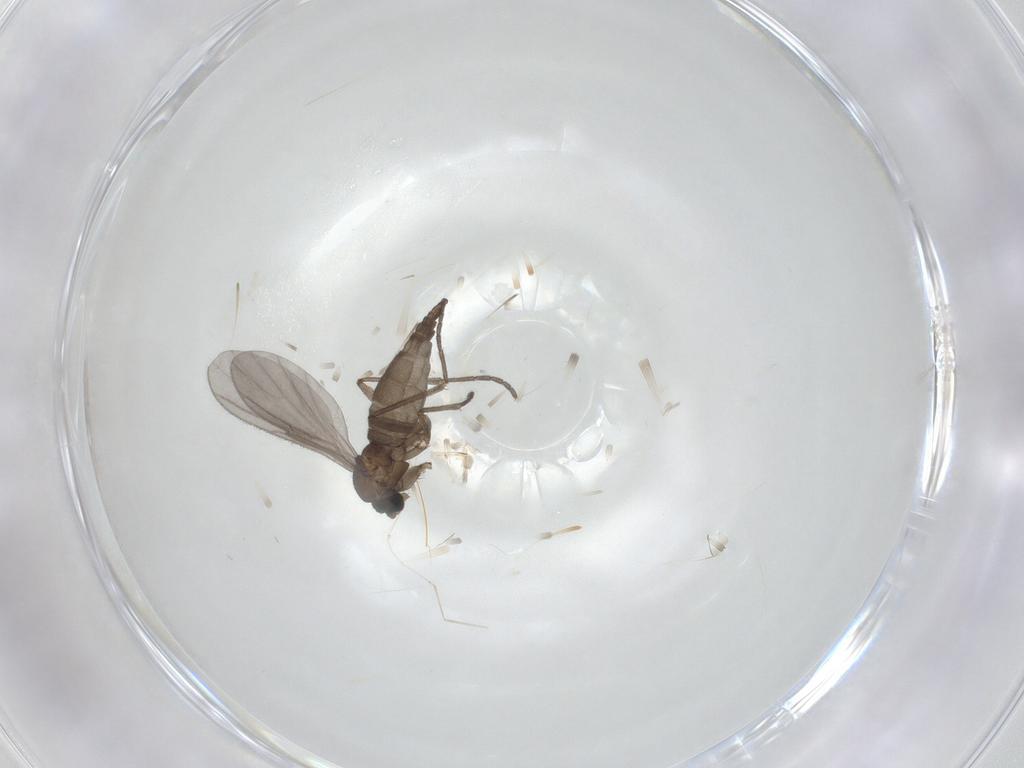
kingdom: Animalia
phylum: Arthropoda
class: Insecta
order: Diptera
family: Sciaridae
